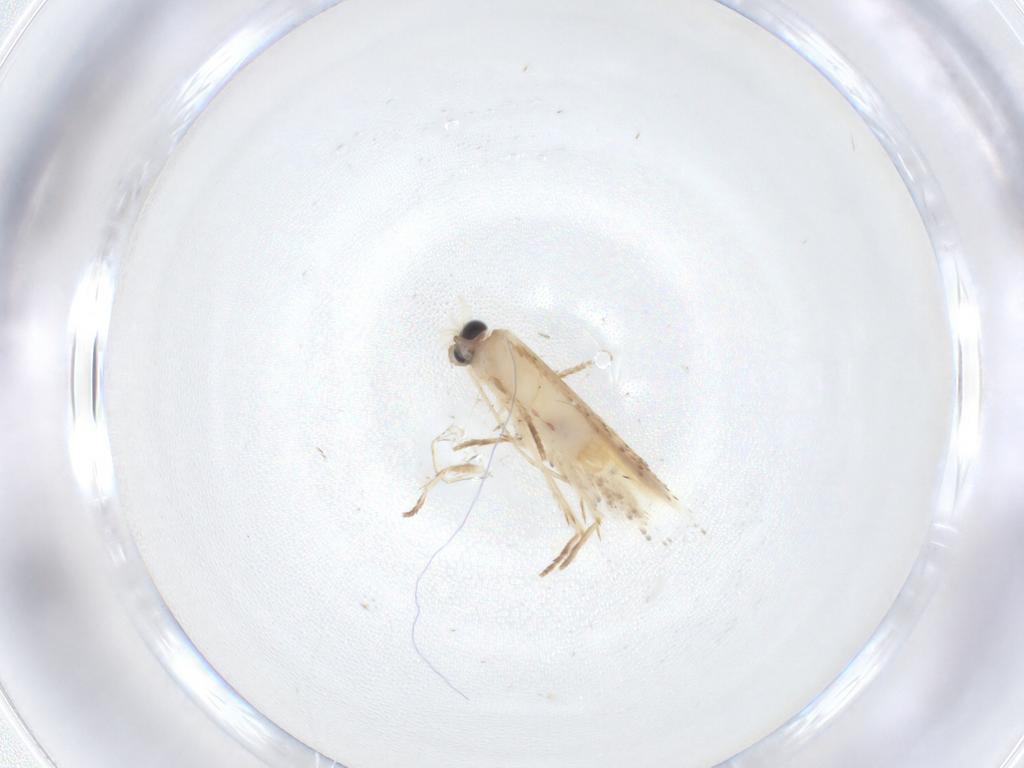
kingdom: Animalia
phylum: Arthropoda
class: Insecta
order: Lepidoptera
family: Nepticulidae
